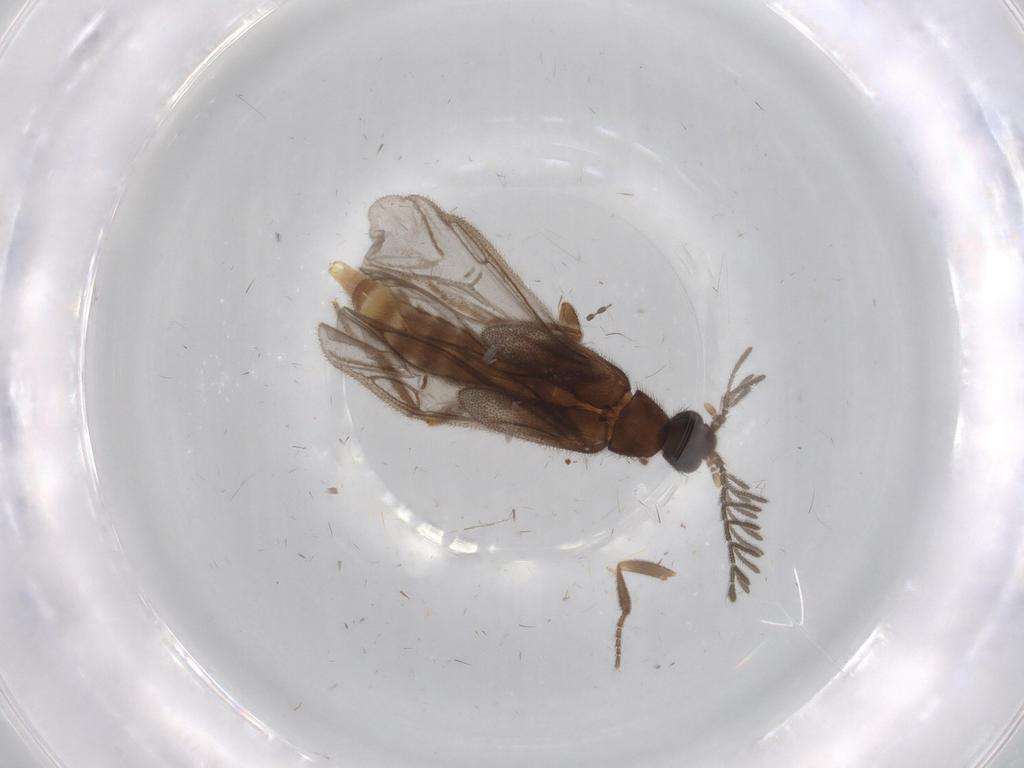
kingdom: Animalia
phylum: Arthropoda
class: Insecta
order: Coleoptera
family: Chrysomelidae
